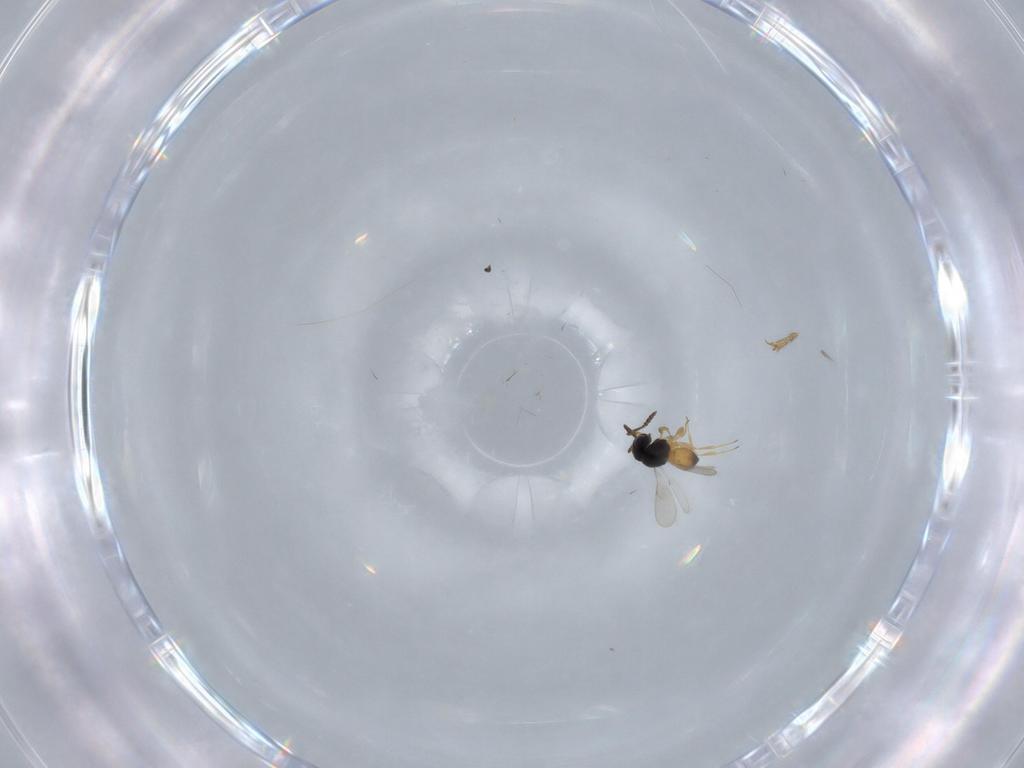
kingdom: Animalia
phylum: Arthropoda
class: Insecta
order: Hymenoptera
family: Scelionidae
